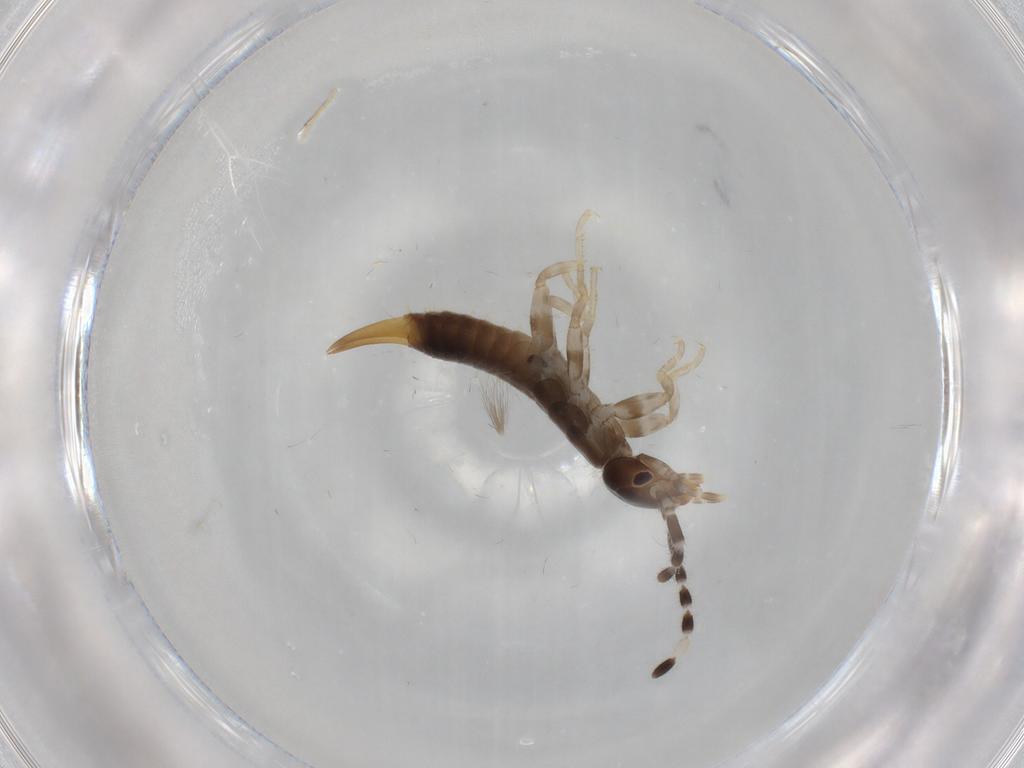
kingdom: Animalia
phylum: Arthropoda
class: Insecta
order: Dermaptera
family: Anisolabididae
